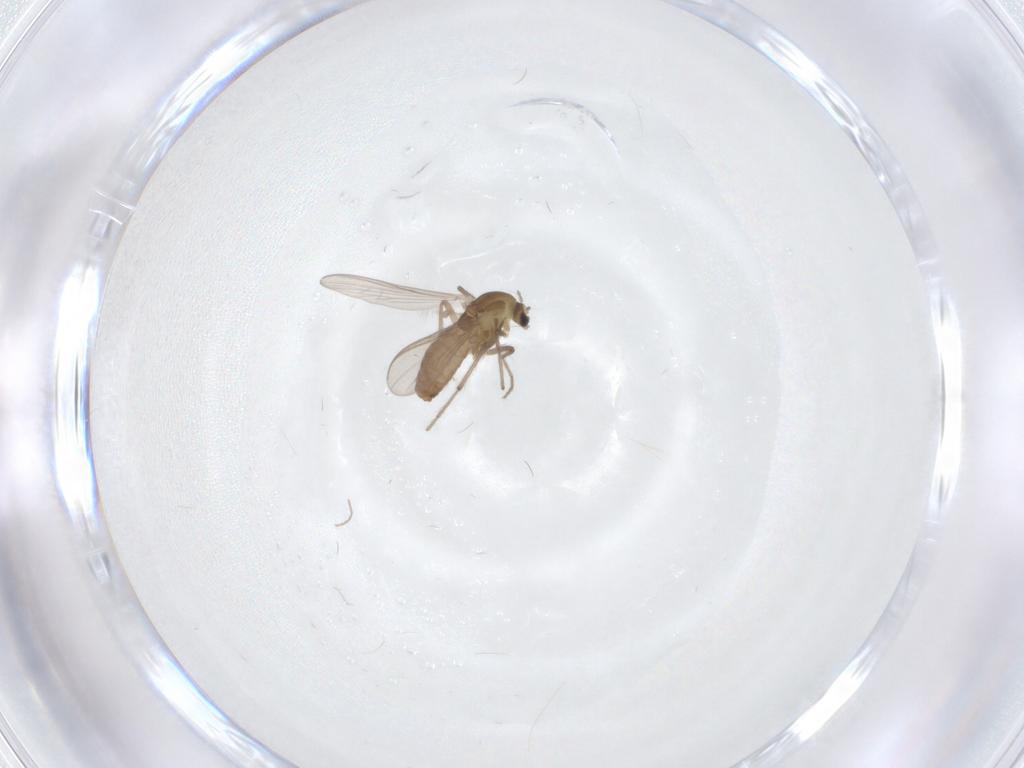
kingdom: Animalia
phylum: Arthropoda
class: Insecta
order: Diptera
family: Chironomidae
